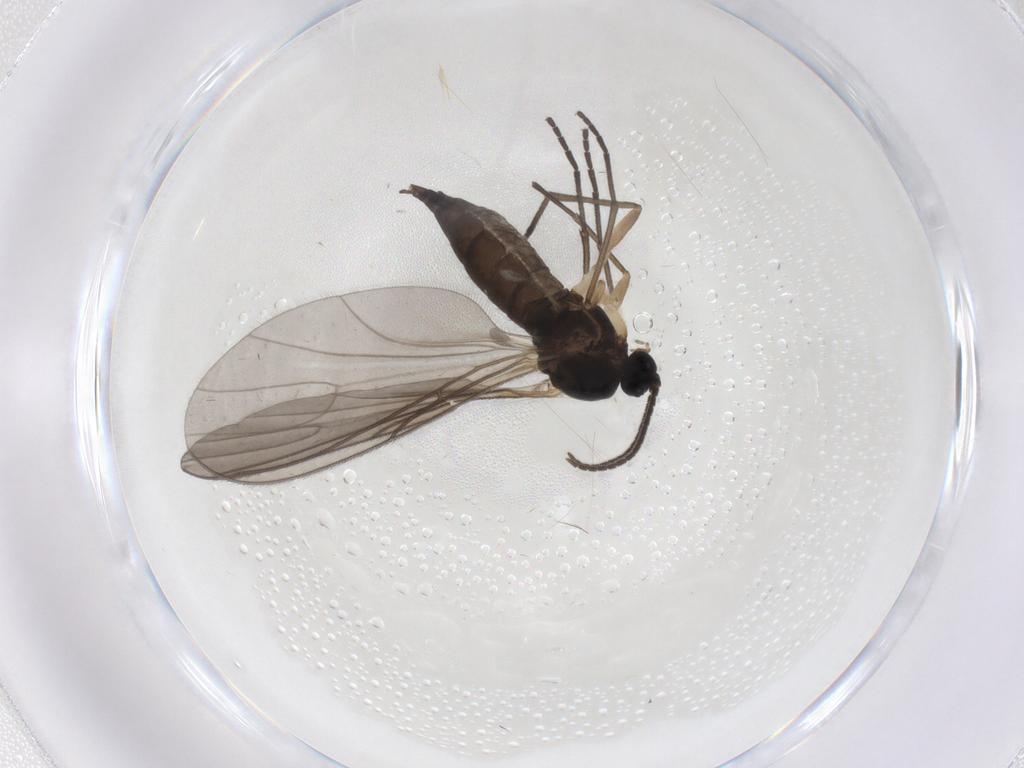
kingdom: Animalia
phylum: Arthropoda
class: Insecta
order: Diptera
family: Sciaridae
